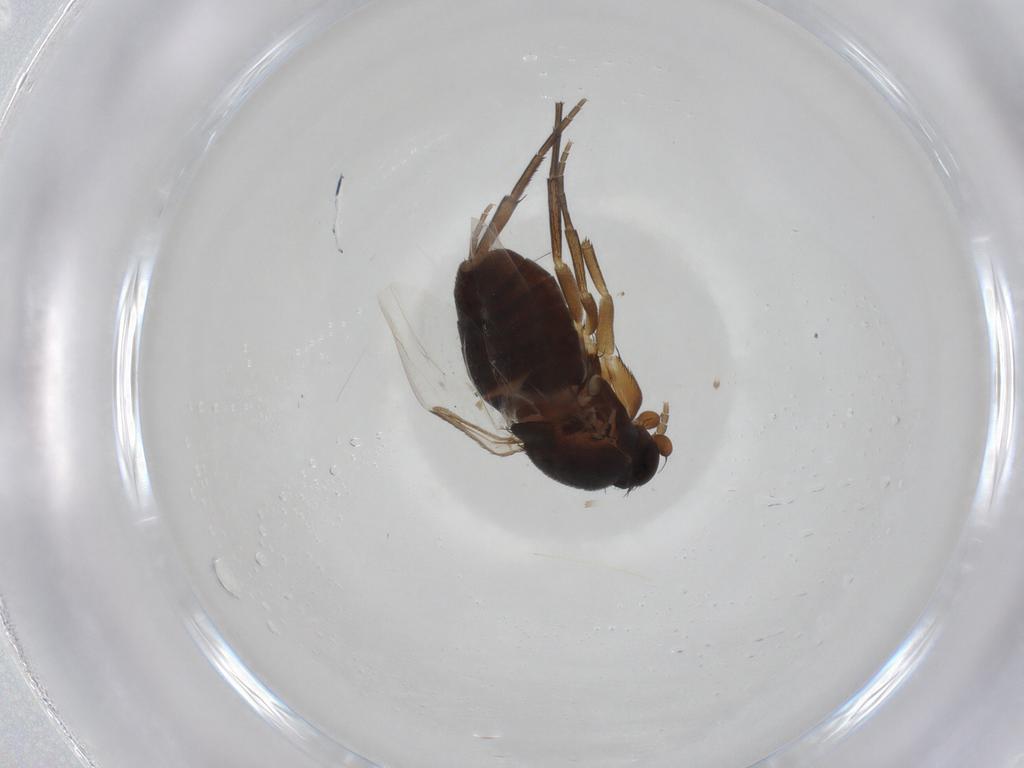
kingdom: Animalia
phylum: Arthropoda
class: Insecta
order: Diptera
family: Phoridae
